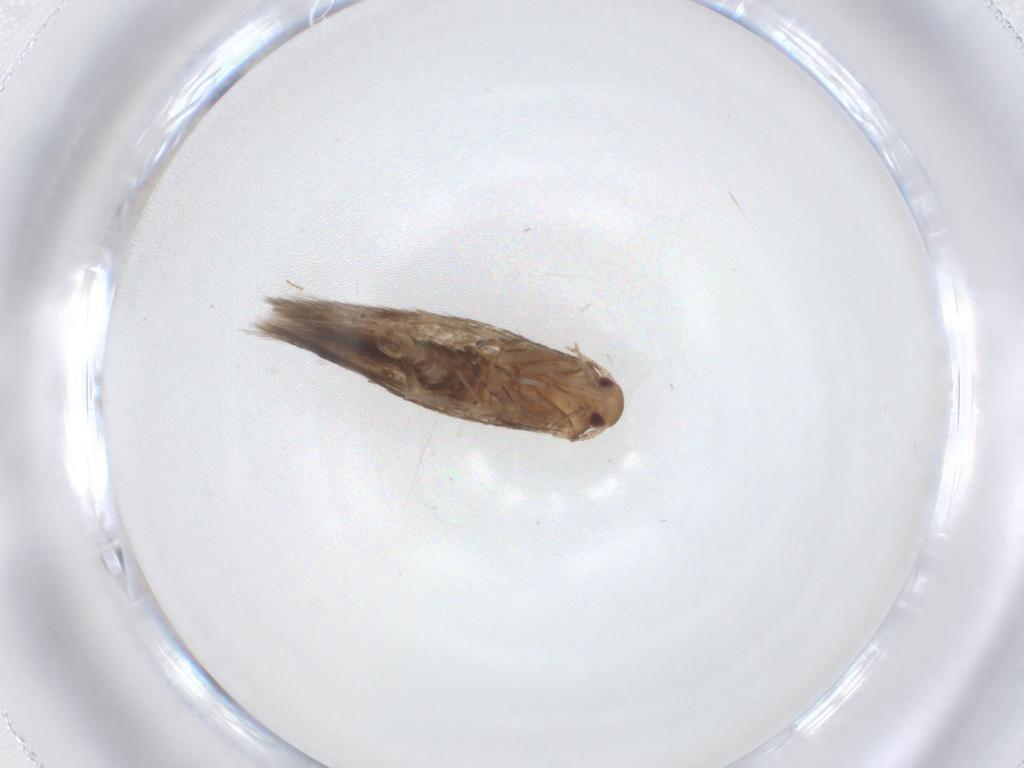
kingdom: Animalia
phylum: Arthropoda
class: Insecta
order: Lepidoptera
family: Momphidae
